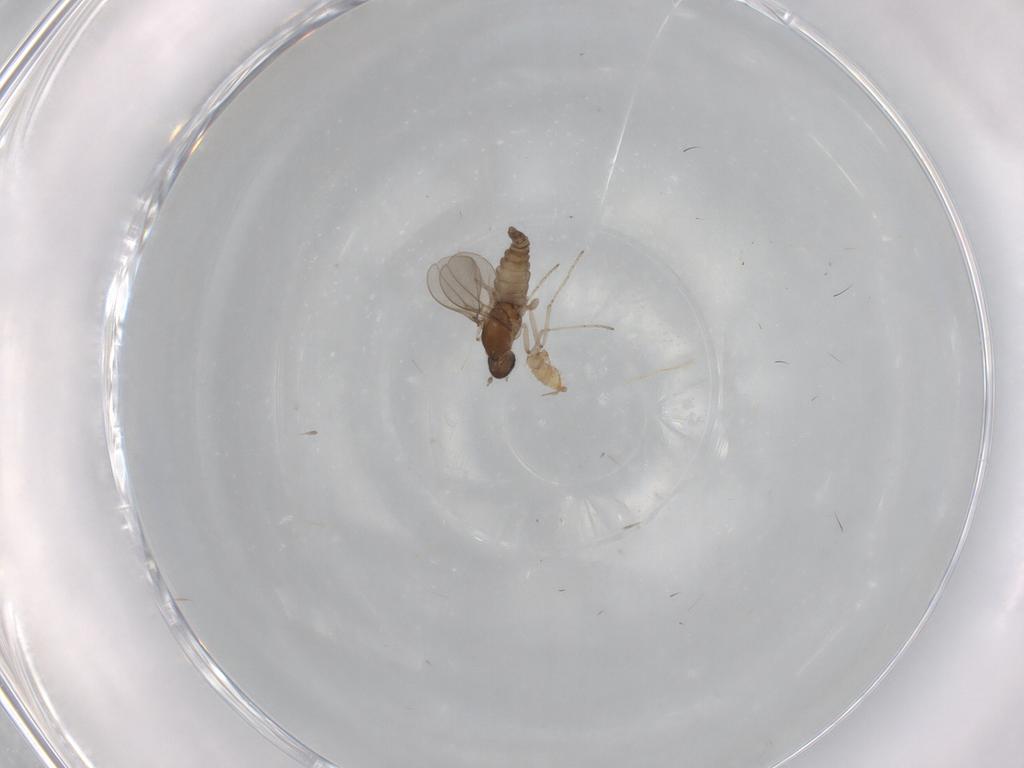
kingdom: Animalia
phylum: Arthropoda
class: Insecta
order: Diptera
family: Cecidomyiidae
